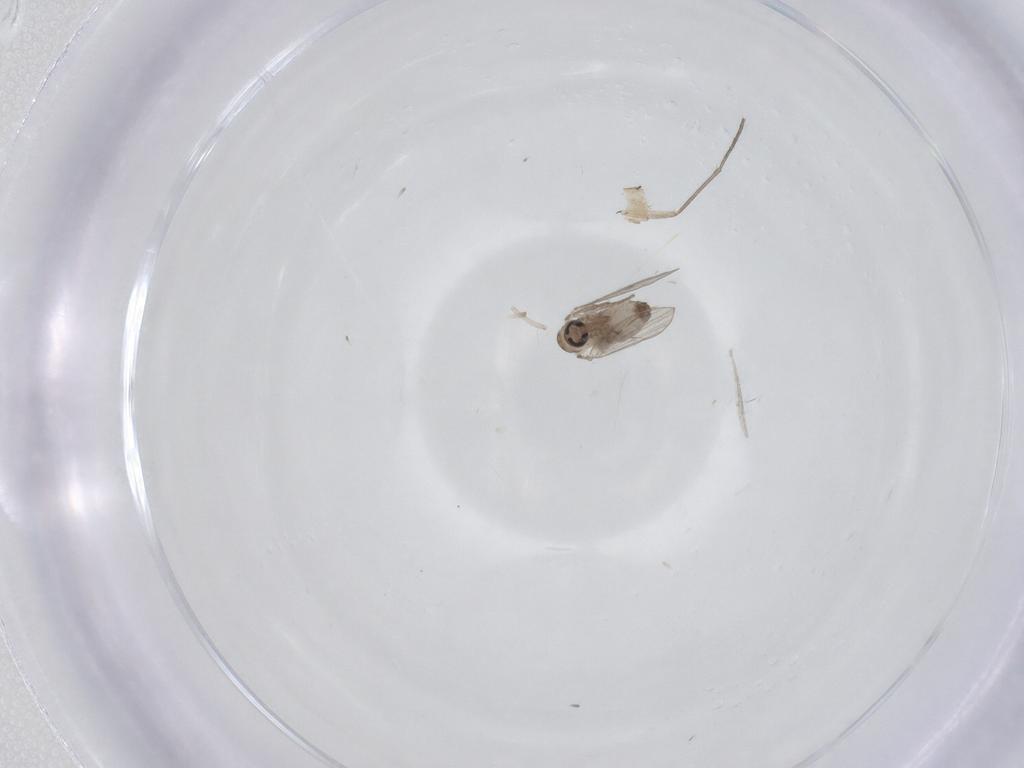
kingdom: Animalia
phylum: Arthropoda
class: Insecta
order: Diptera
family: Psychodidae
